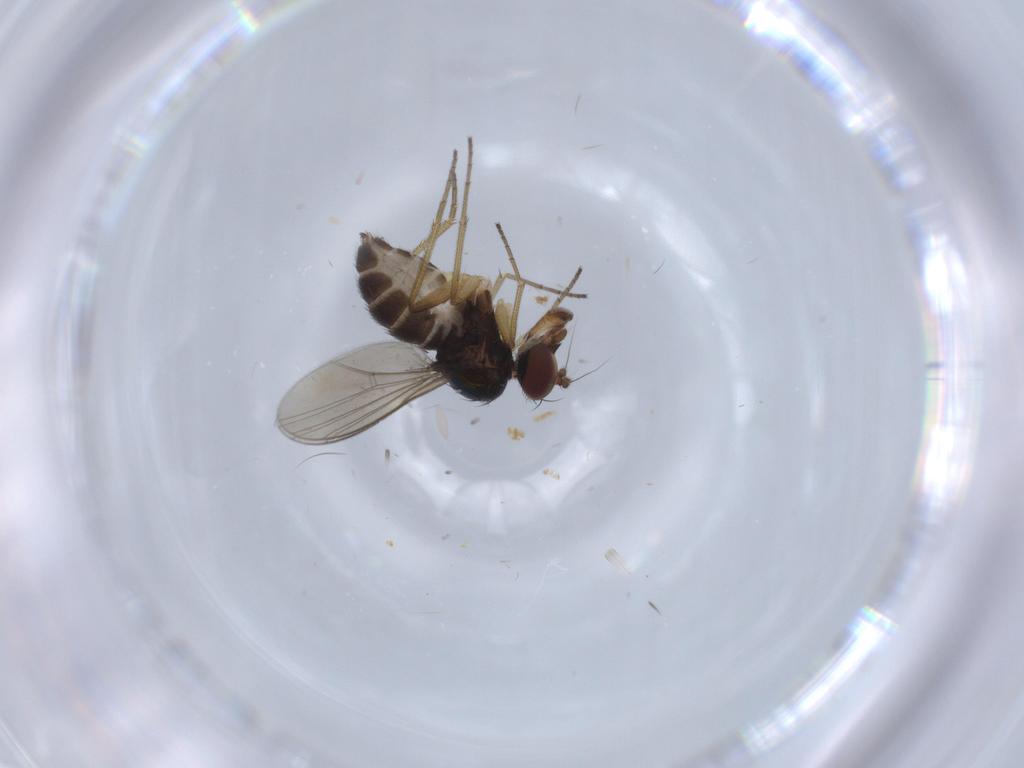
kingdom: Animalia
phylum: Arthropoda
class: Insecta
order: Diptera
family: Dolichopodidae
